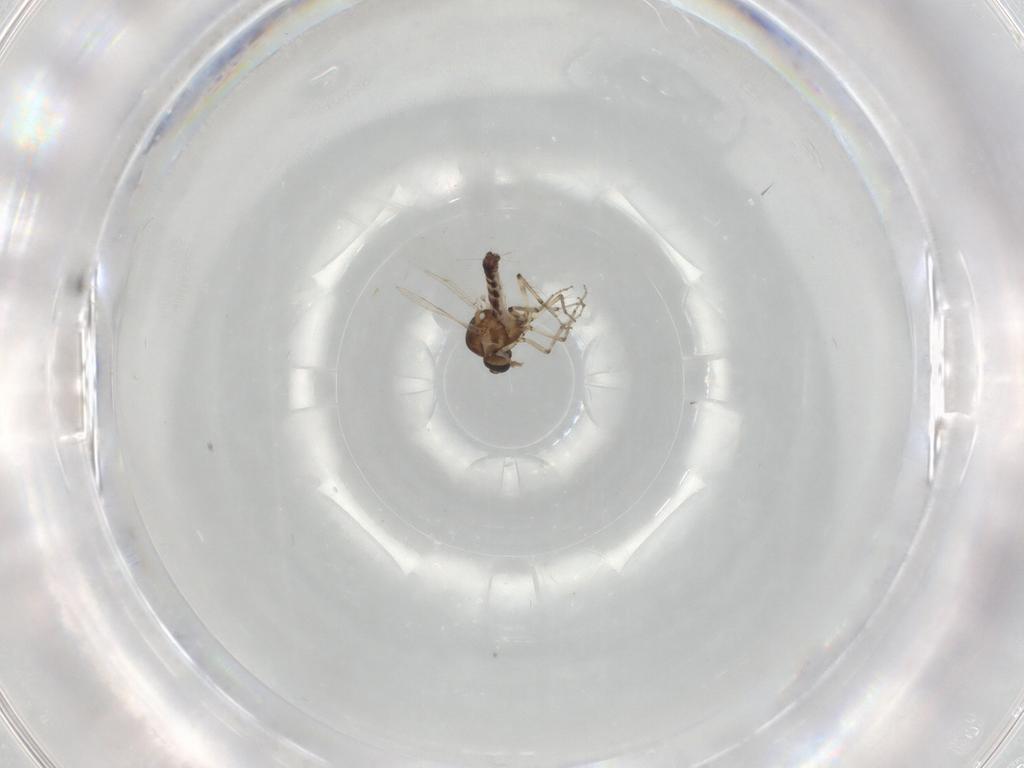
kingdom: Animalia
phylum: Arthropoda
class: Insecta
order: Diptera
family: Ceratopogonidae
